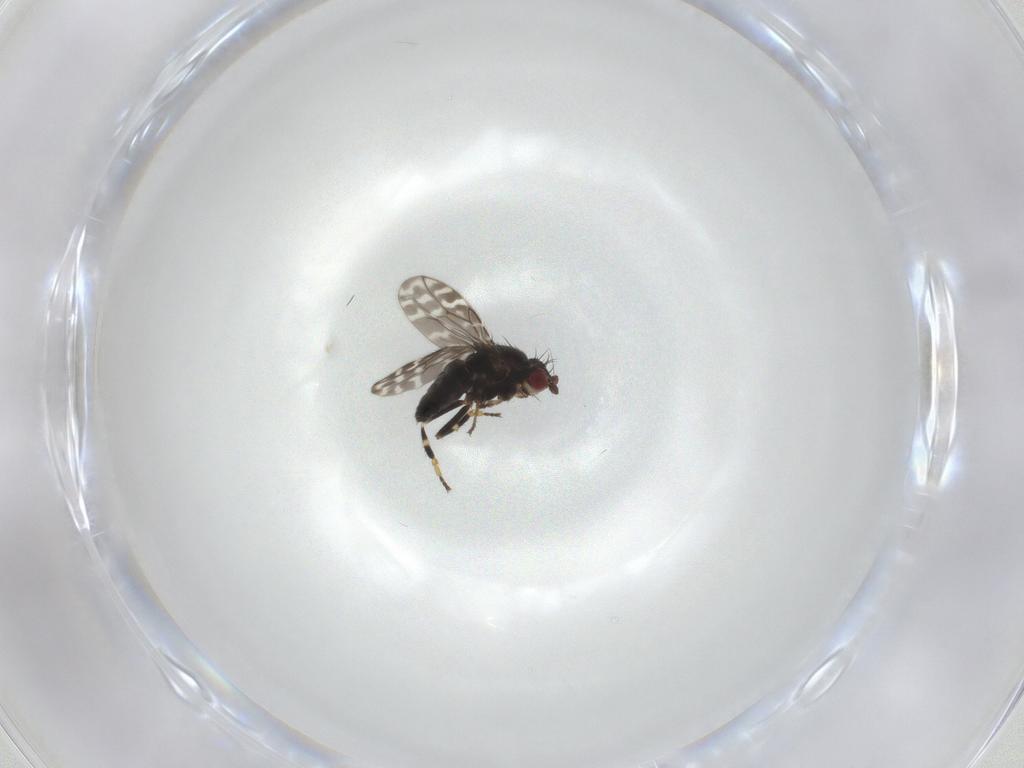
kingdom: Animalia
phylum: Arthropoda
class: Insecta
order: Diptera
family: Sphaeroceridae
